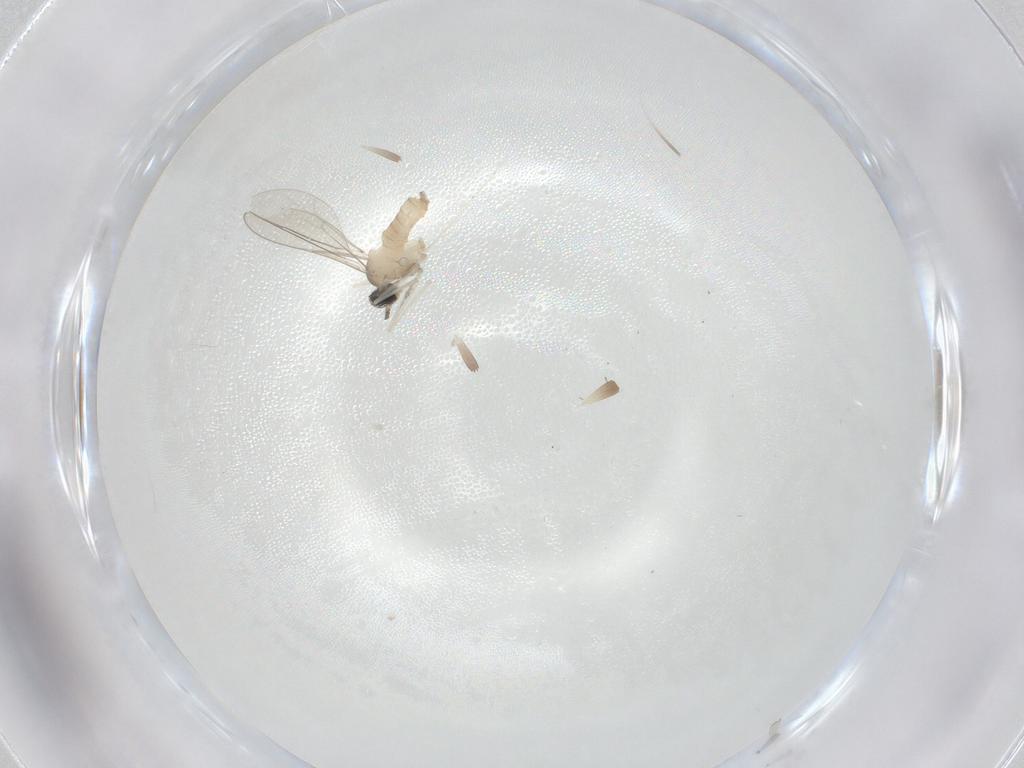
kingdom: Animalia
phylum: Arthropoda
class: Insecta
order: Diptera
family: Cecidomyiidae
